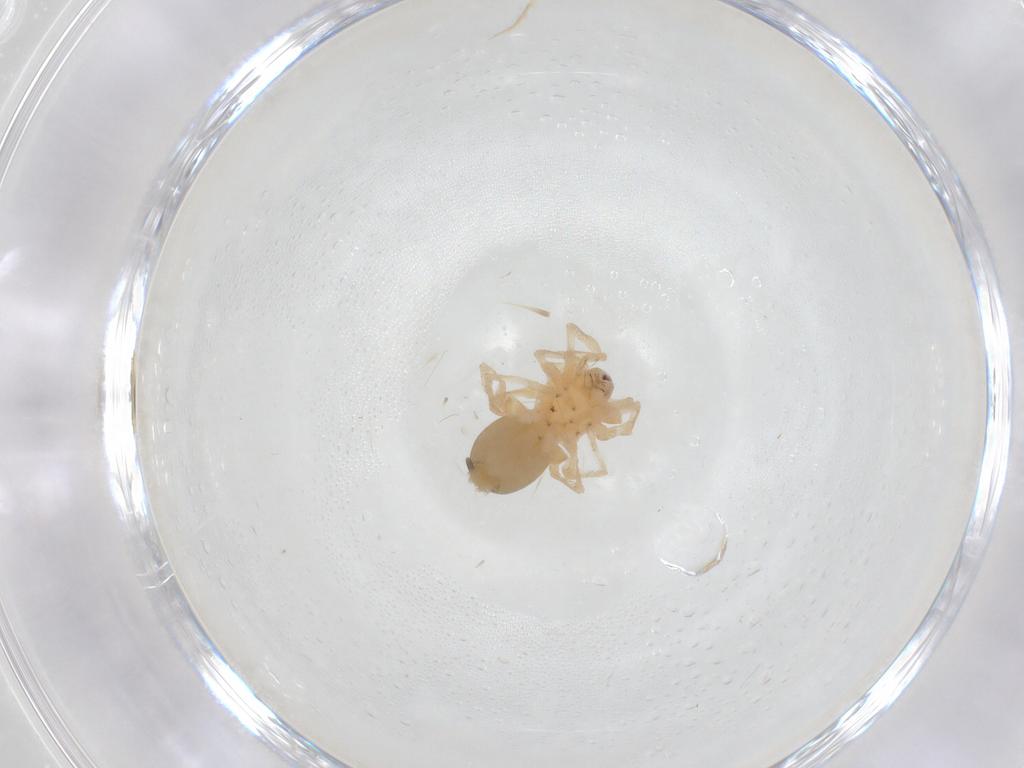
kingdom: Animalia
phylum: Arthropoda
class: Arachnida
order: Araneae
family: Corinnidae
